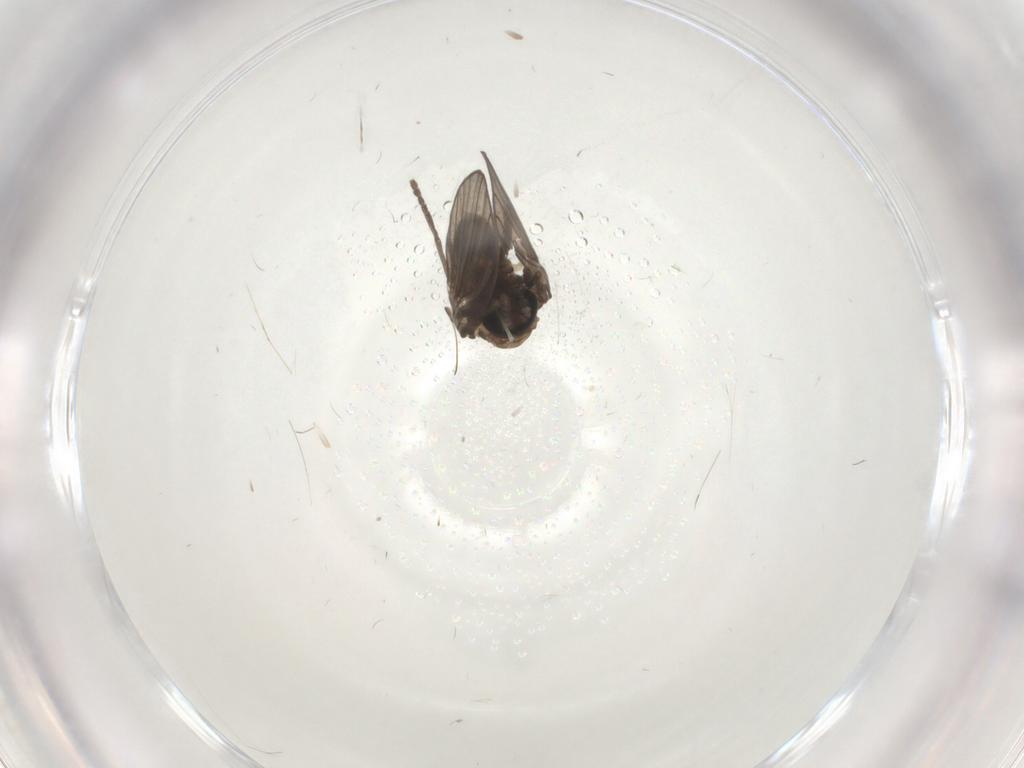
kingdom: Animalia
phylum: Arthropoda
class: Insecta
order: Diptera
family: Psychodidae
